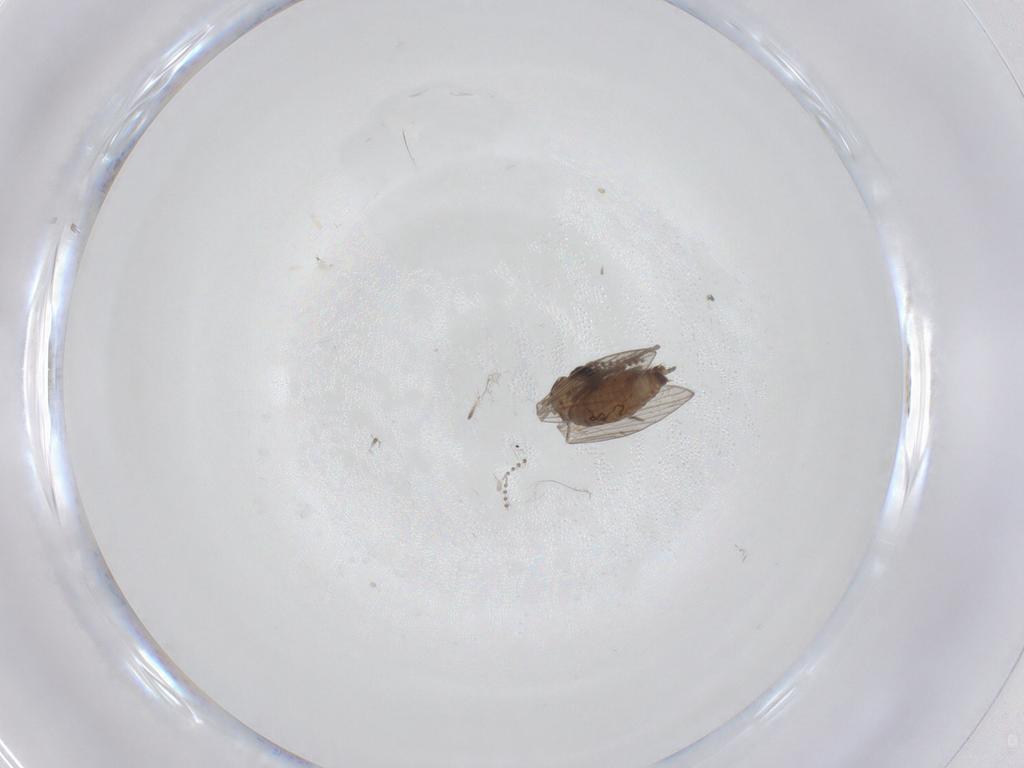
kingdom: Animalia
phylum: Arthropoda
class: Insecta
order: Diptera
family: Psychodidae
